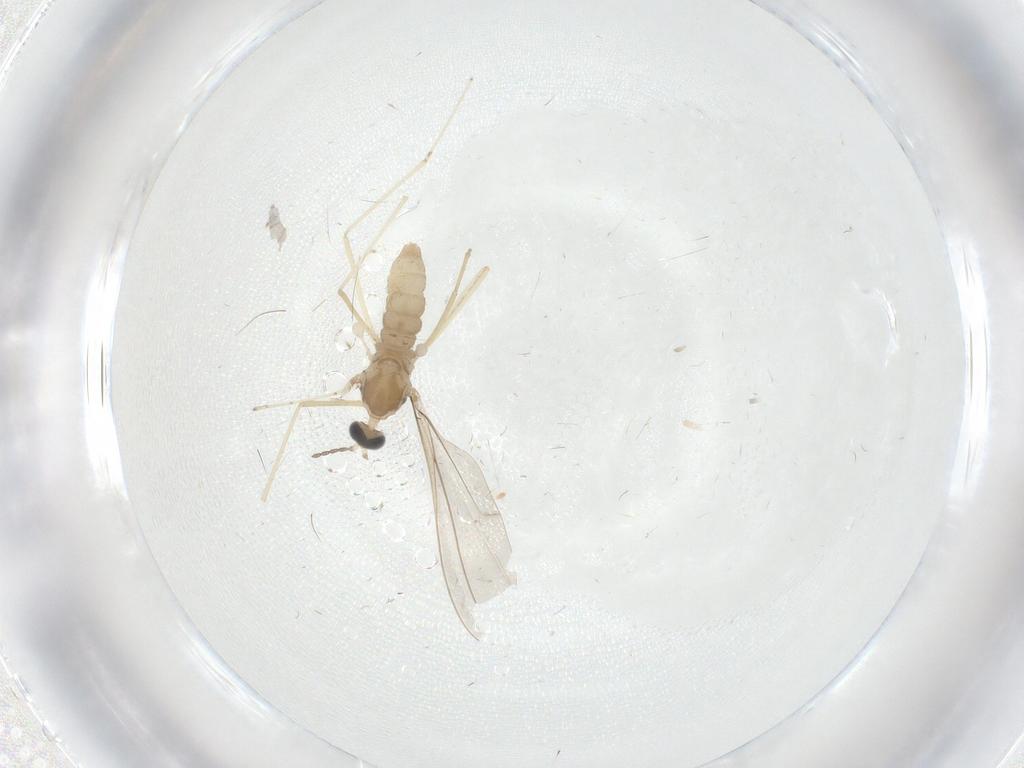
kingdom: Animalia
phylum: Arthropoda
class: Insecta
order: Diptera
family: Cecidomyiidae
